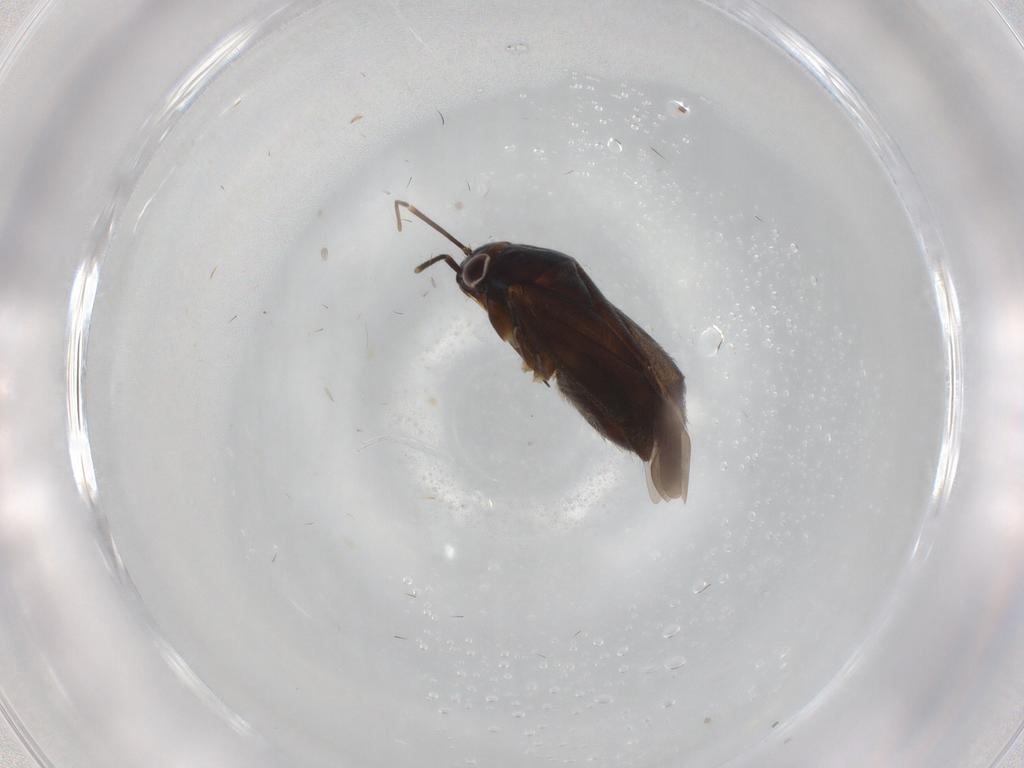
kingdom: Animalia
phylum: Arthropoda
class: Insecta
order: Hemiptera
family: Miridae
